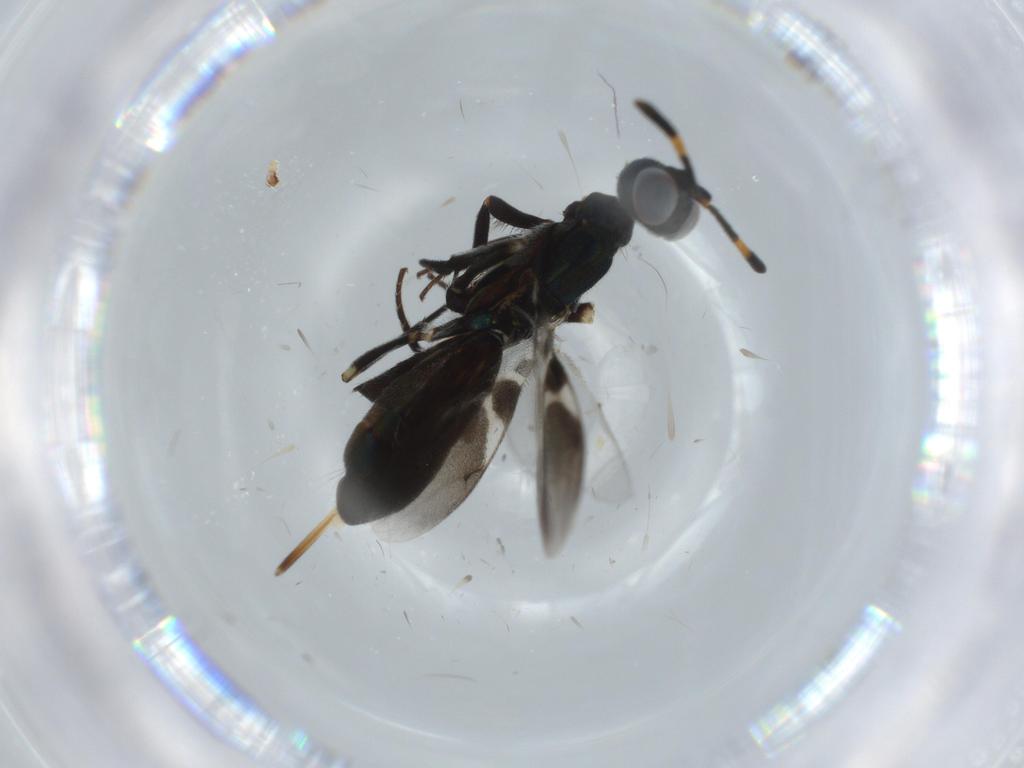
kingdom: Animalia
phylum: Arthropoda
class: Insecta
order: Hymenoptera
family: Eupelmidae
